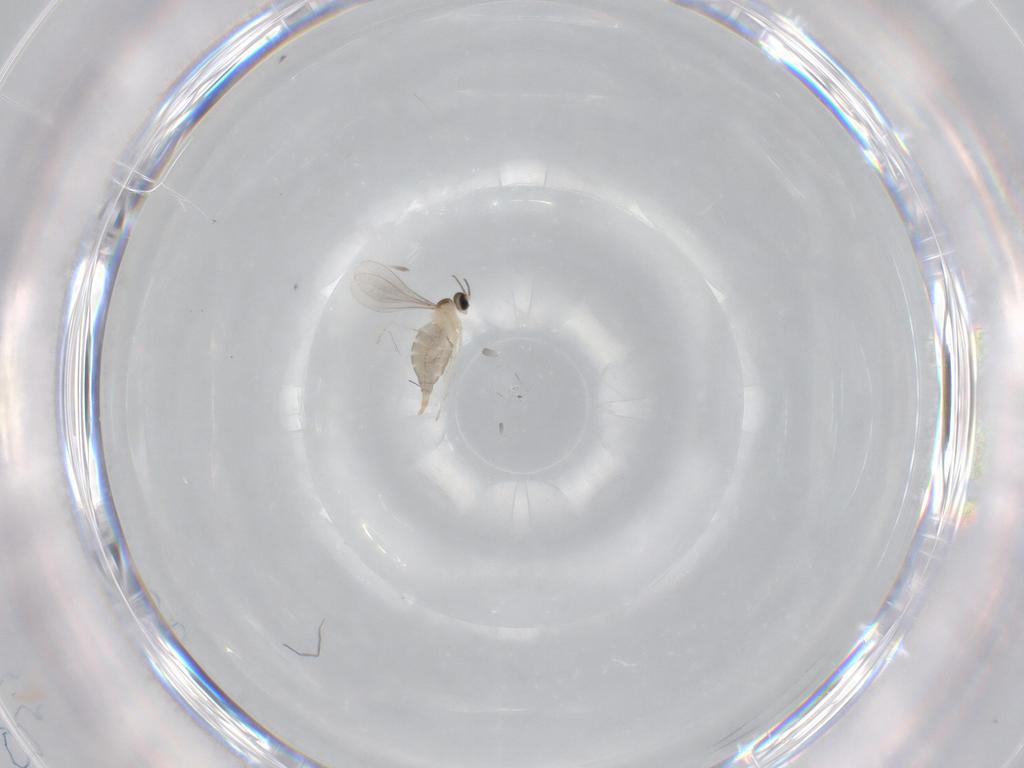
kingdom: Animalia
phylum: Arthropoda
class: Insecta
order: Diptera
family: Cecidomyiidae
